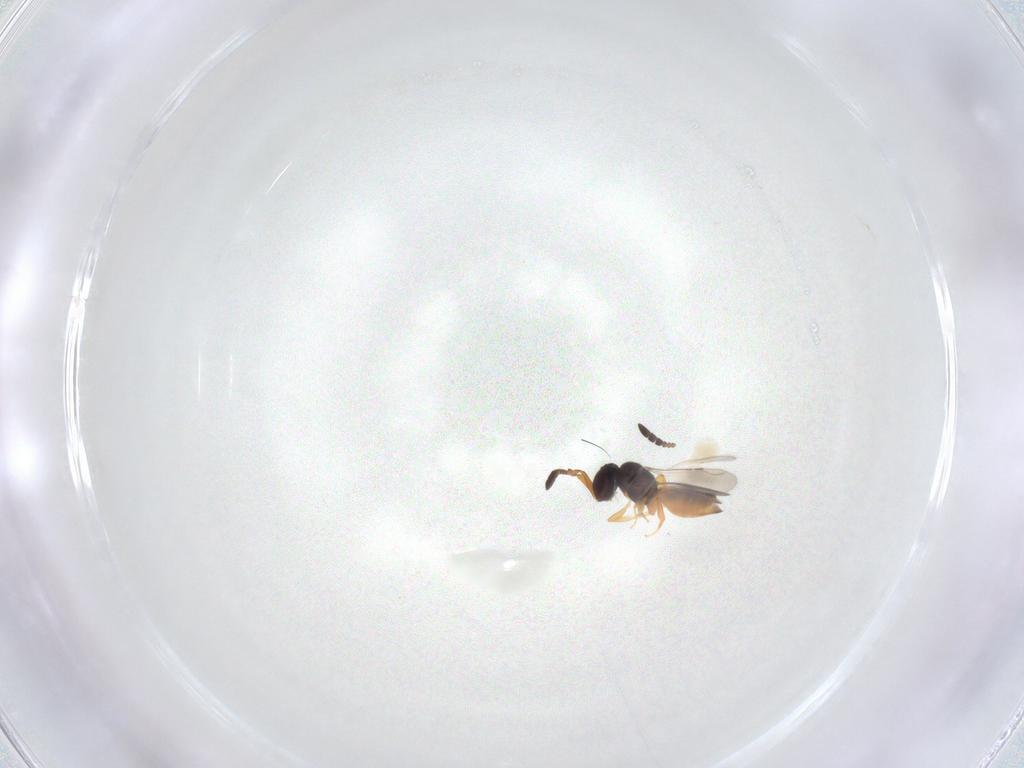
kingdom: Animalia
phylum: Arthropoda
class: Insecta
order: Hymenoptera
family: Ceraphronidae
